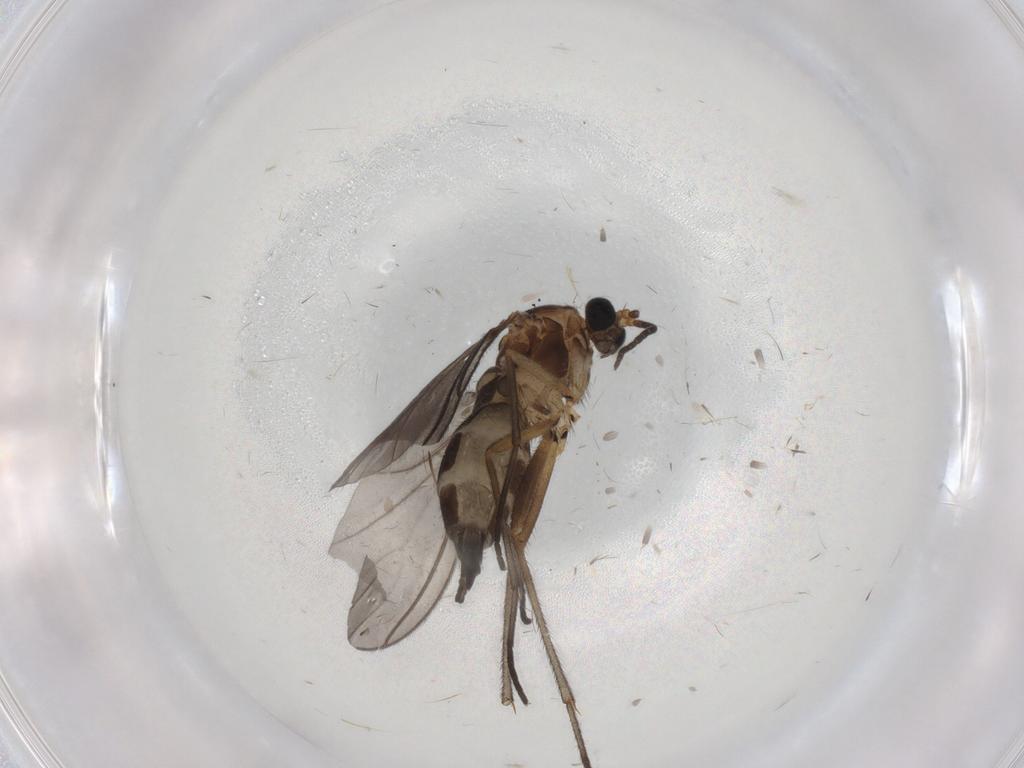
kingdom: Animalia
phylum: Arthropoda
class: Insecta
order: Diptera
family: Sciaridae
